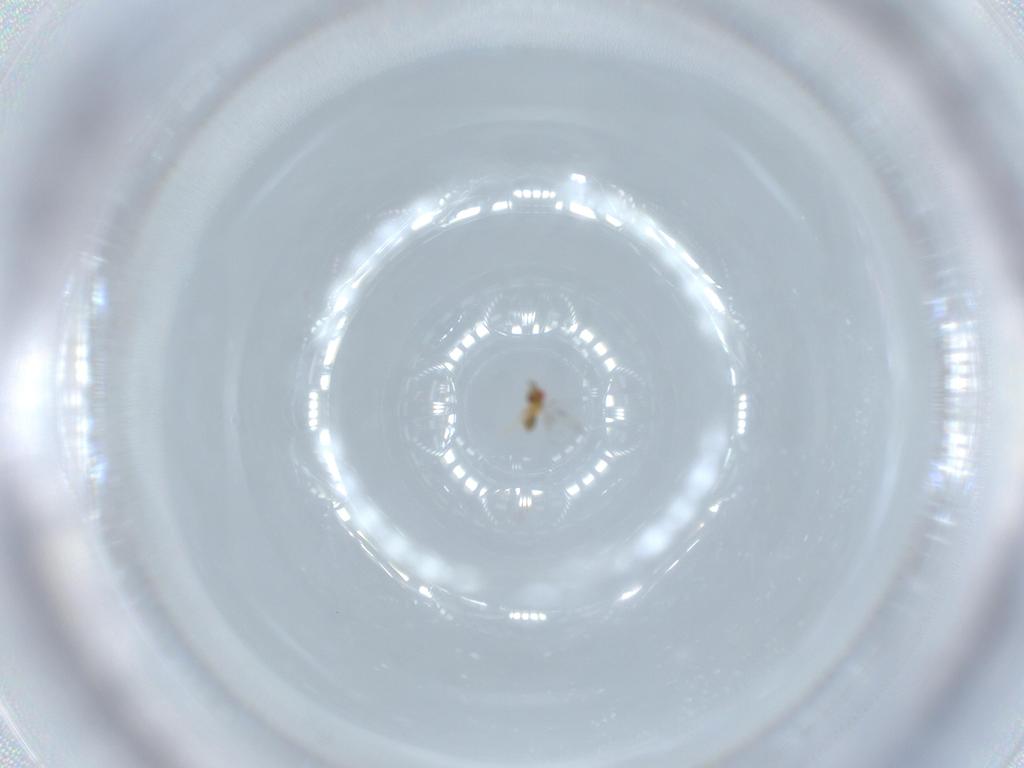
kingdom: Animalia
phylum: Arthropoda
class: Insecta
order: Hymenoptera
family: Trichogrammatidae
